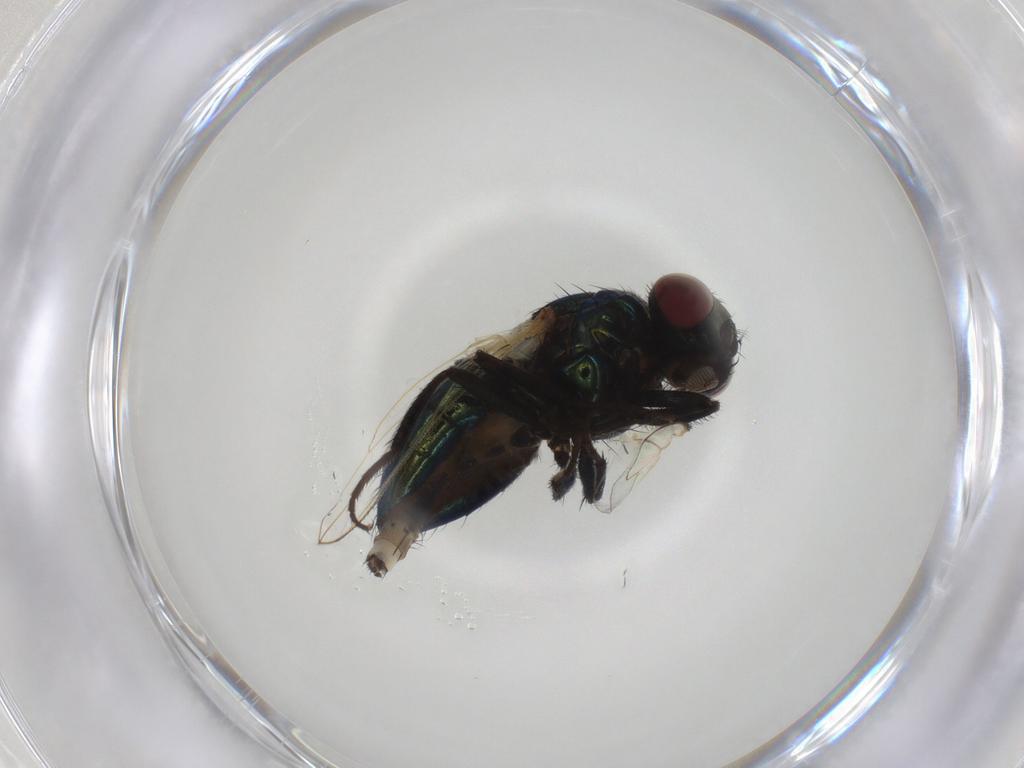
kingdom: Animalia
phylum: Arthropoda
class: Insecta
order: Diptera
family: Muscidae
